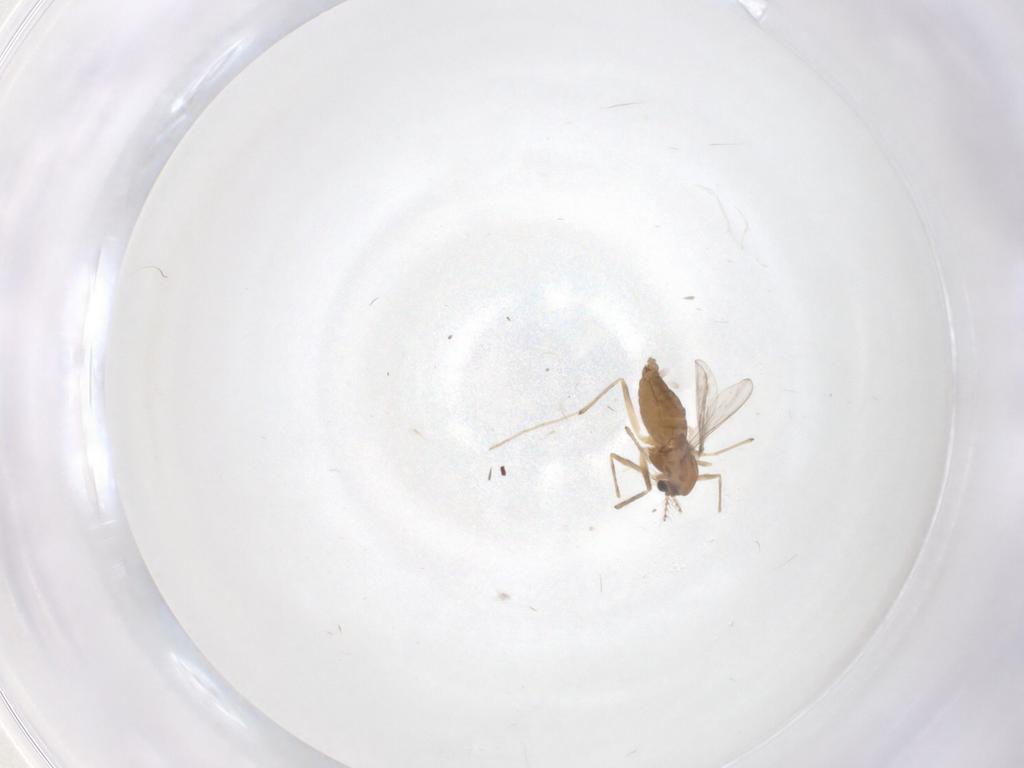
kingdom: Animalia
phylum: Arthropoda
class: Insecta
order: Diptera
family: Chironomidae
